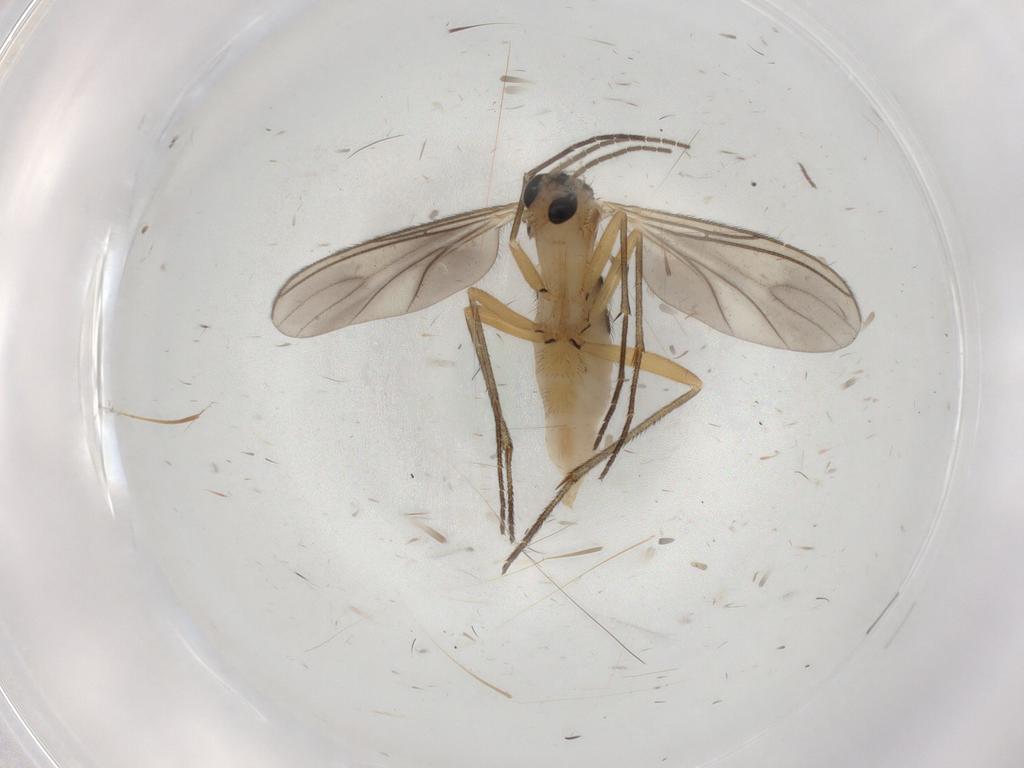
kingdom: Animalia
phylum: Arthropoda
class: Insecta
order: Diptera
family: Sciaridae
